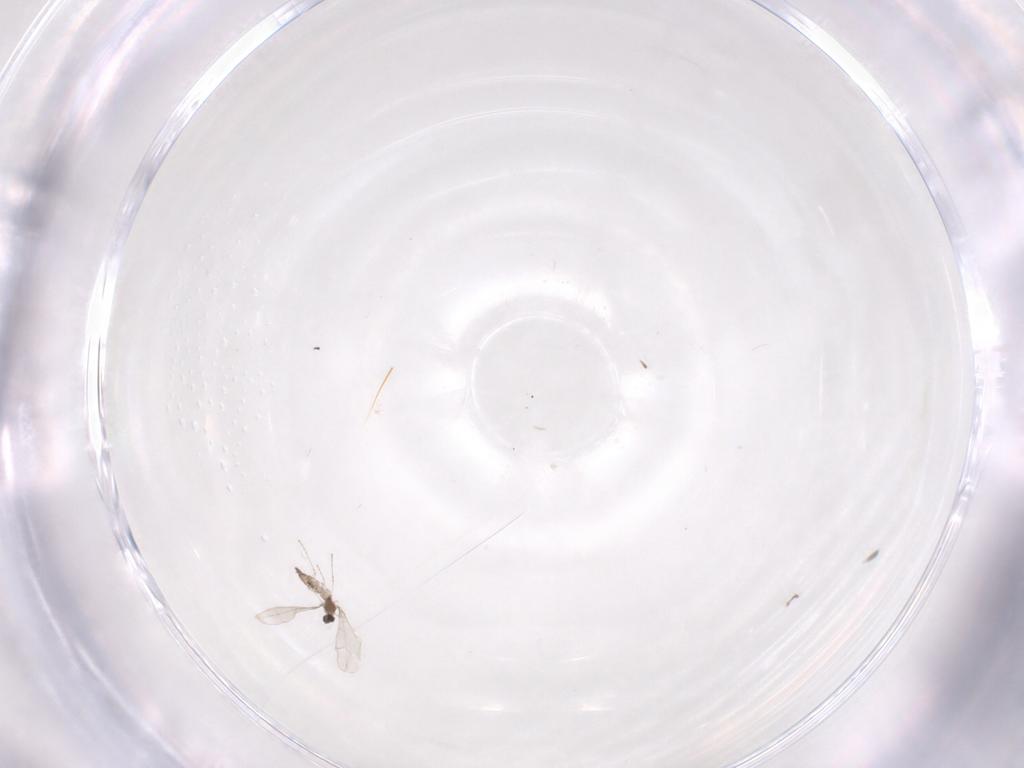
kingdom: Animalia
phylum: Arthropoda
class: Insecta
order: Diptera
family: Cecidomyiidae
